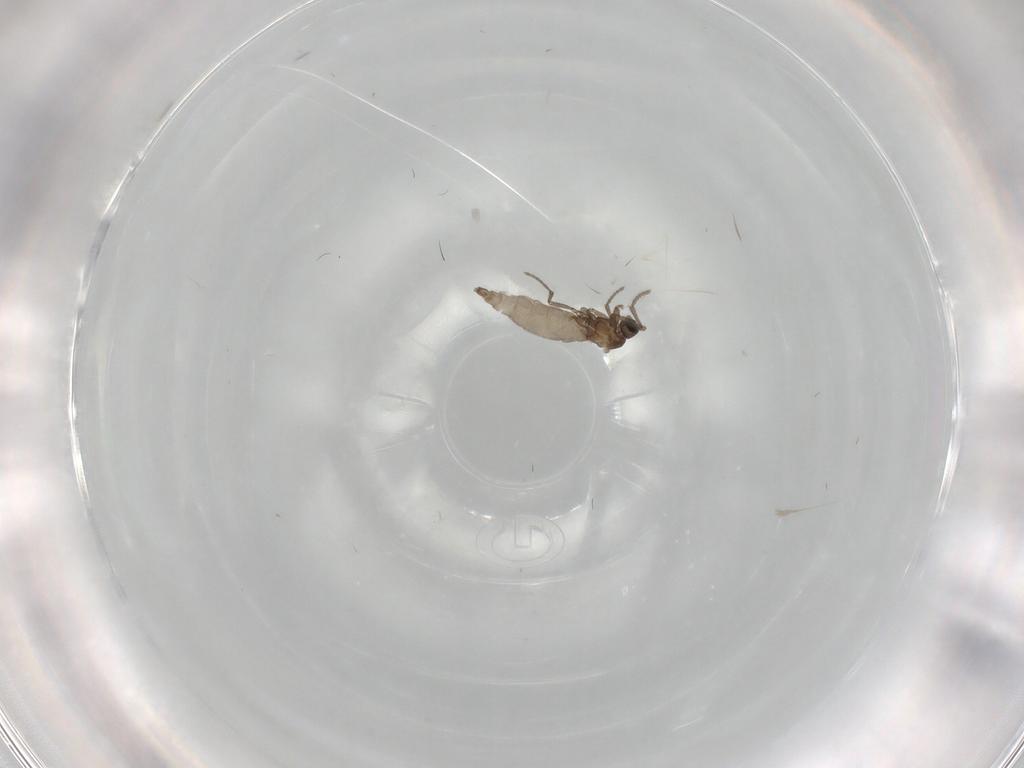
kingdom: Animalia
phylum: Arthropoda
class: Insecta
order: Diptera
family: Sciaridae
